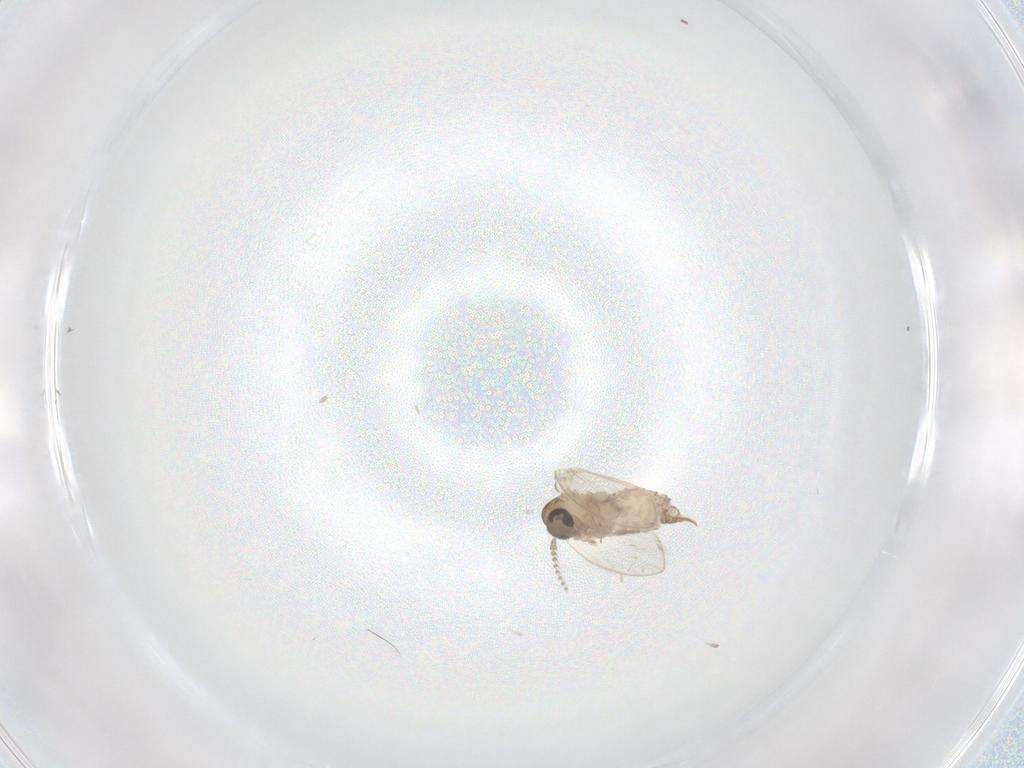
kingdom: Animalia
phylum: Arthropoda
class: Insecta
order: Diptera
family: Psychodidae
